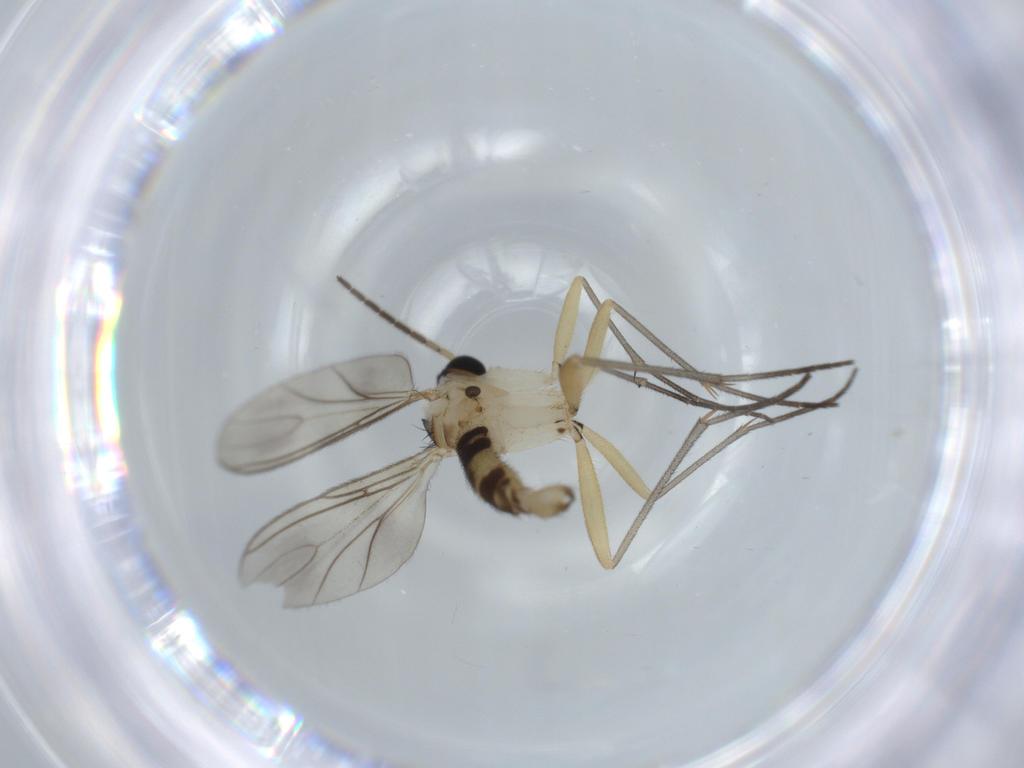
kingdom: Animalia
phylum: Arthropoda
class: Insecta
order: Diptera
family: Sciaridae
